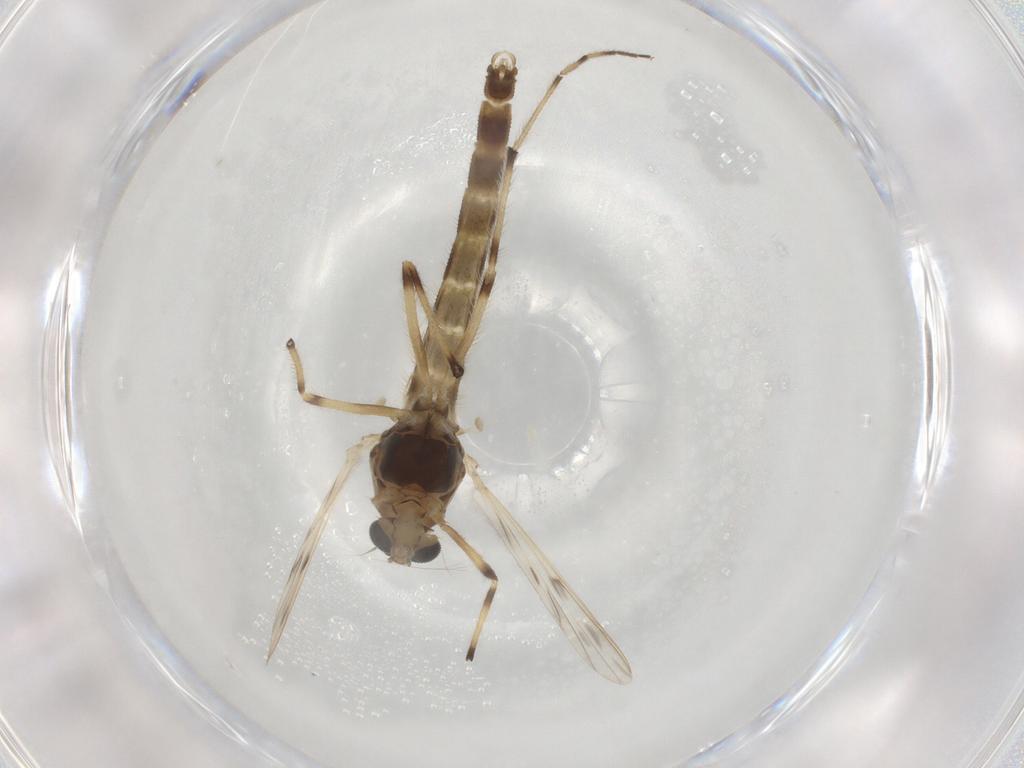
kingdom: Animalia
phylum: Arthropoda
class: Insecta
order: Diptera
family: Chironomidae
